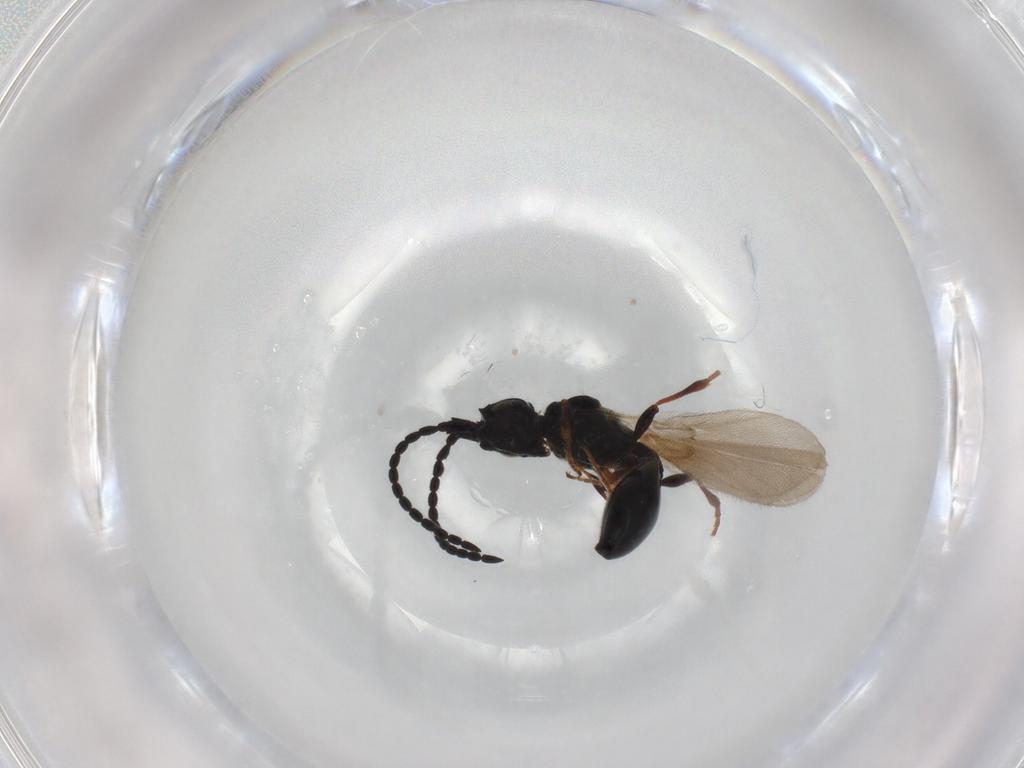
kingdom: Animalia
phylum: Arthropoda
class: Insecta
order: Hymenoptera
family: Diapriidae
